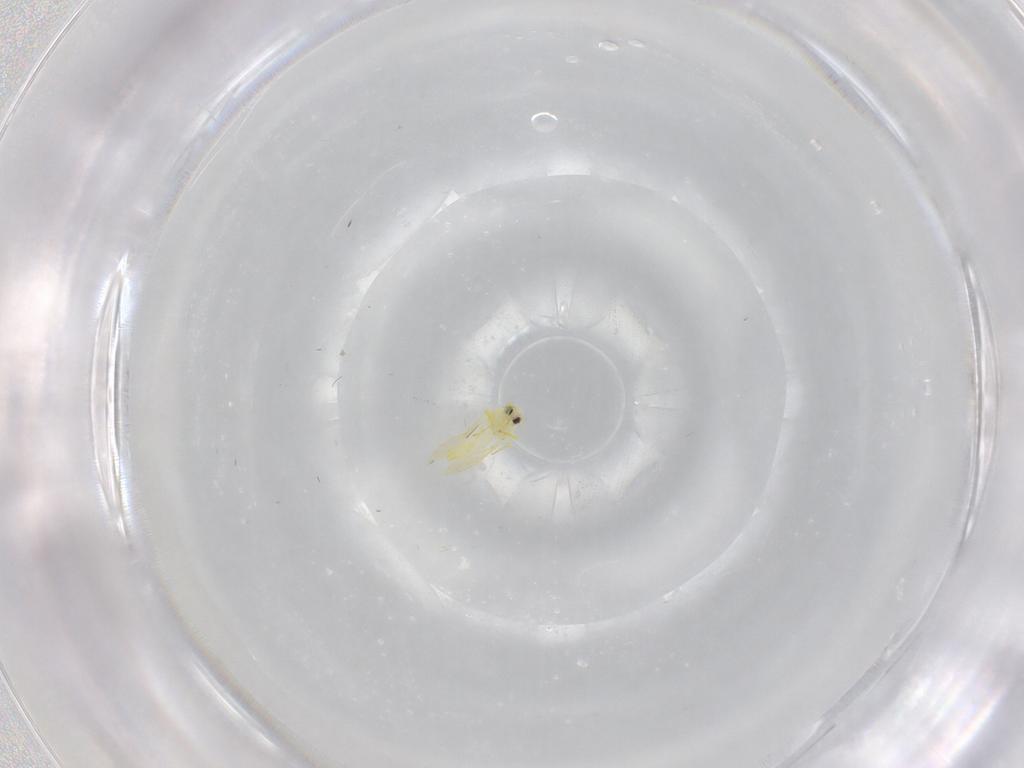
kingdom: Animalia
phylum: Arthropoda
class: Insecta
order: Hemiptera
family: Aleyrodidae
